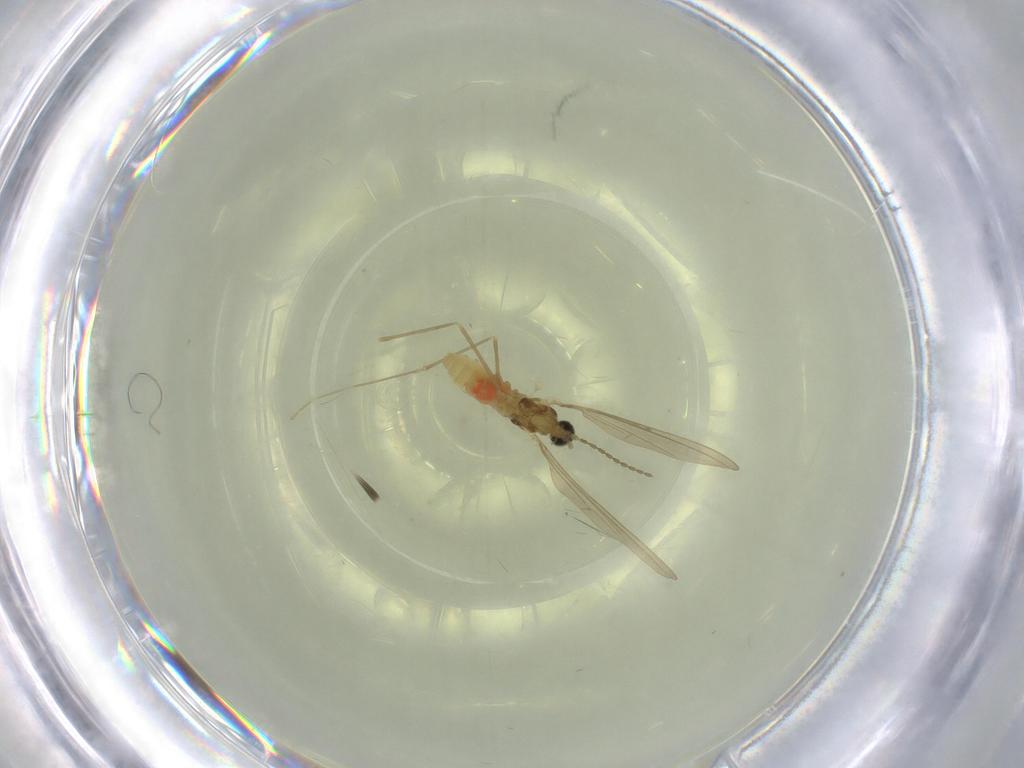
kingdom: Animalia
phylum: Arthropoda
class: Insecta
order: Diptera
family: Cecidomyiidae
